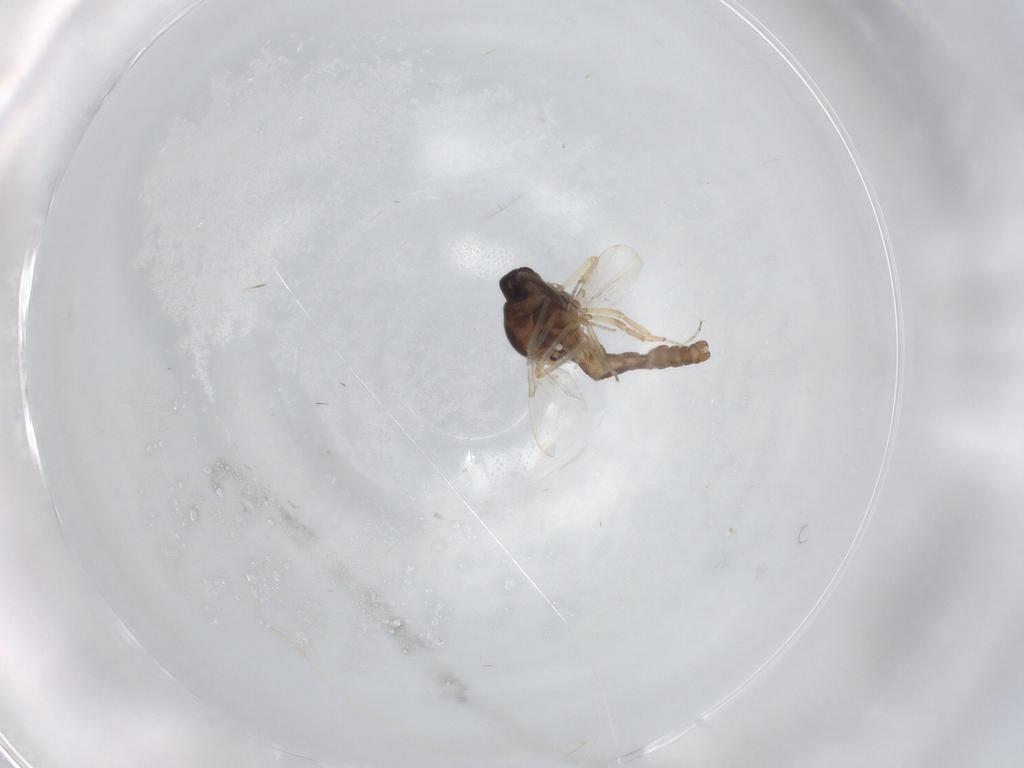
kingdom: Animalia
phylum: Arthropoda
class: Insecta
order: Diptera
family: Ceratopogonidae
